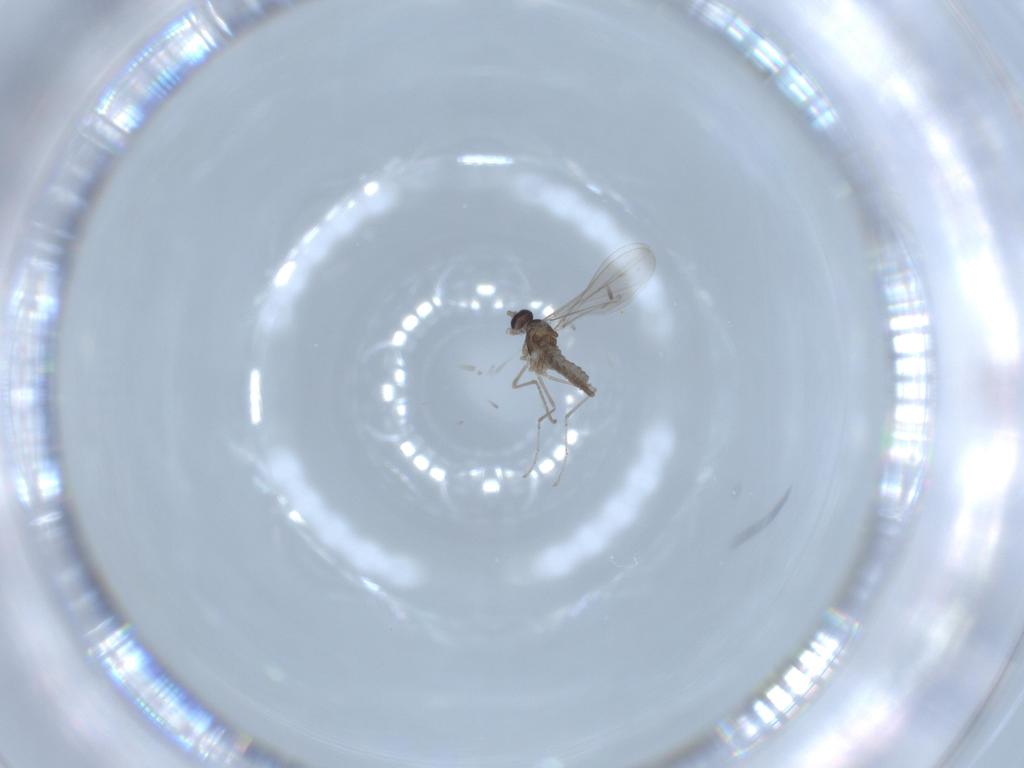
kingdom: Animalia
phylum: Arthropoda
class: Insecta
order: Diptera
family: Cecidomyiidae
